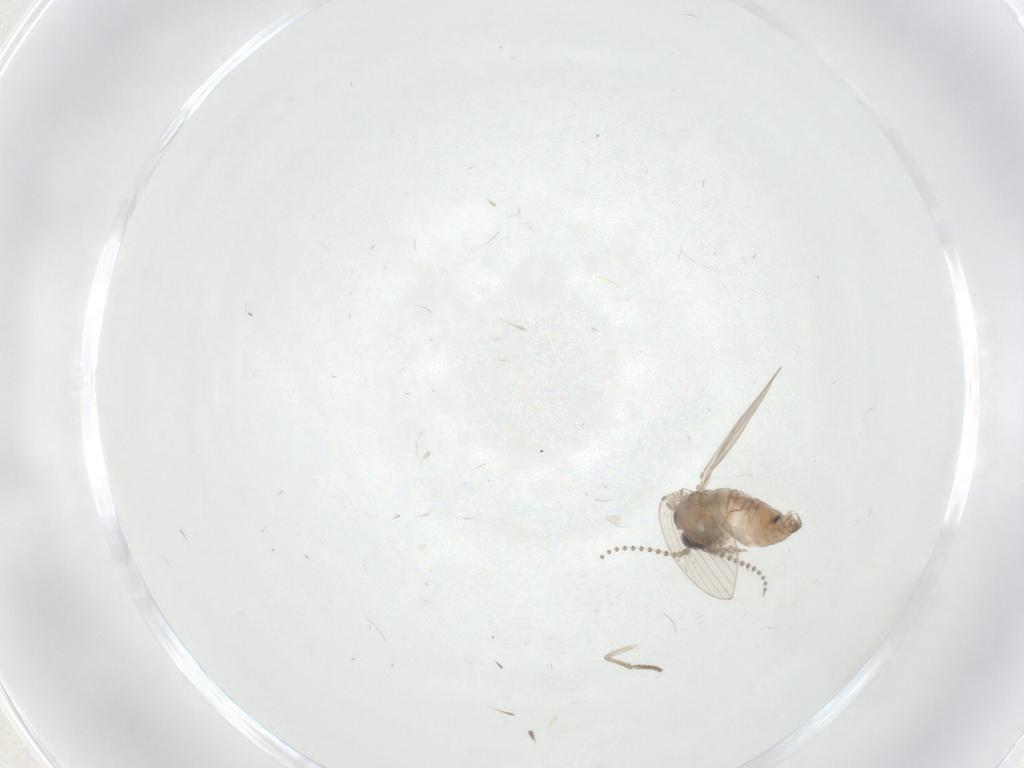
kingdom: Animalia
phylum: Arthropoda
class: Insecta
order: Diptera
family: Psychodidae
